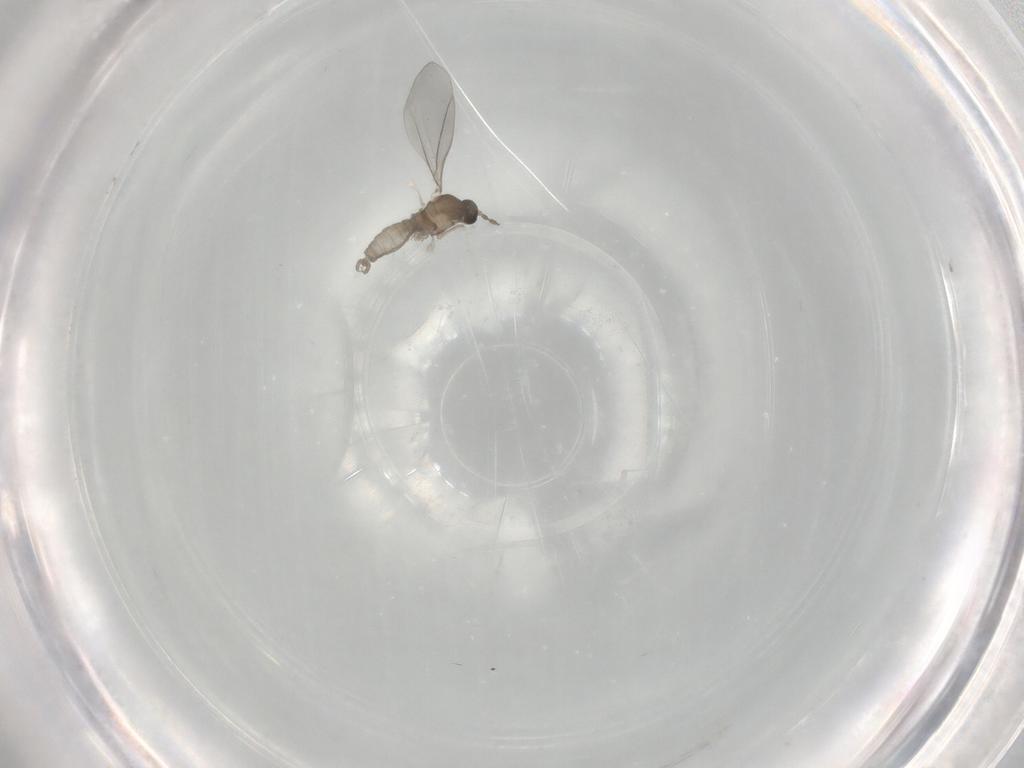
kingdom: Animalia
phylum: Arthropoda
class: Insecta
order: Diptera
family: Cecidomyiidae
